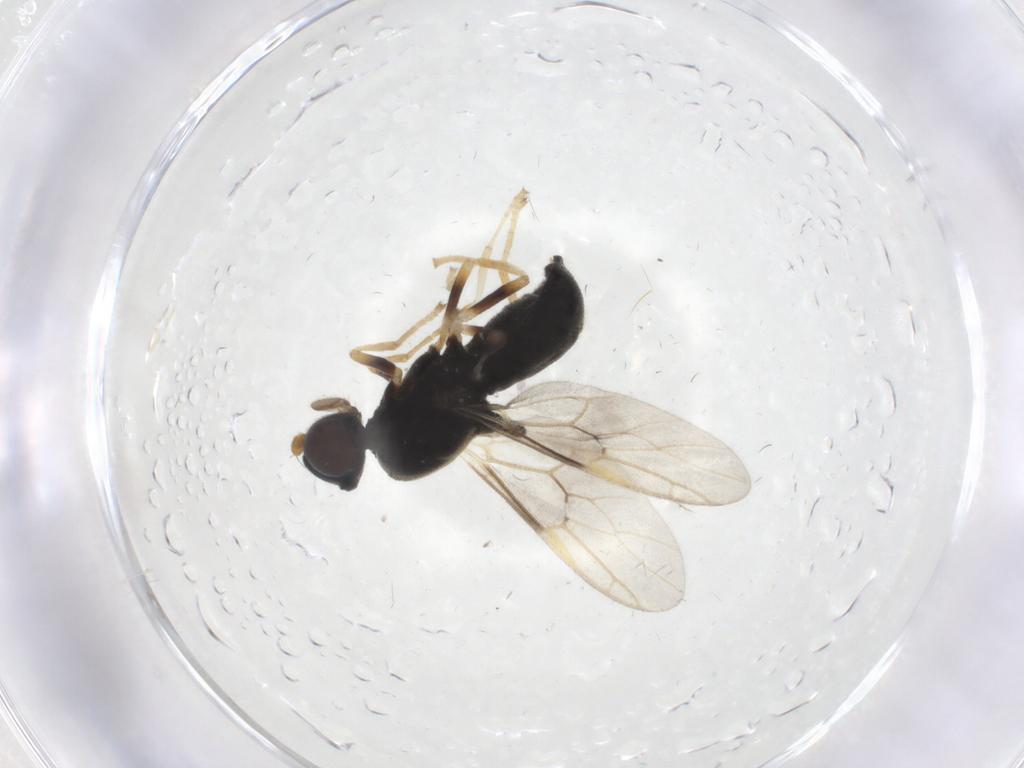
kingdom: Animalia
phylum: Arthropoda
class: Insecta
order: Diptera
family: Stratiomyidae
